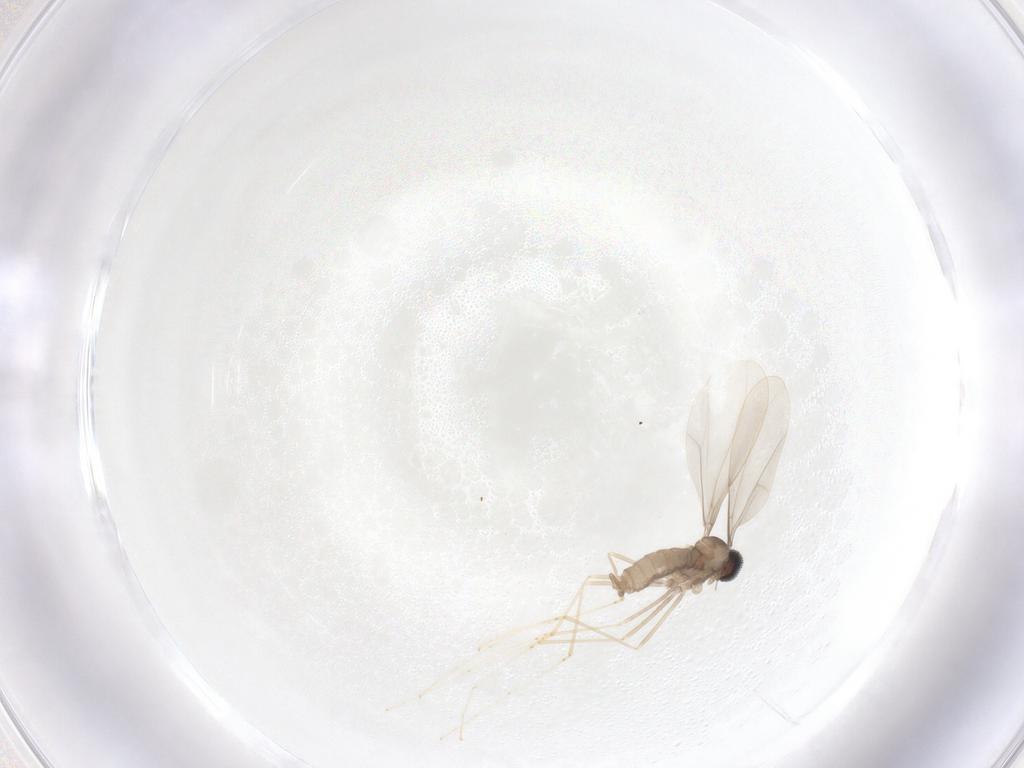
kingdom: Animalia
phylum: Arthropoda
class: Insecta
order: Diptera
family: Cecidomyiidae
